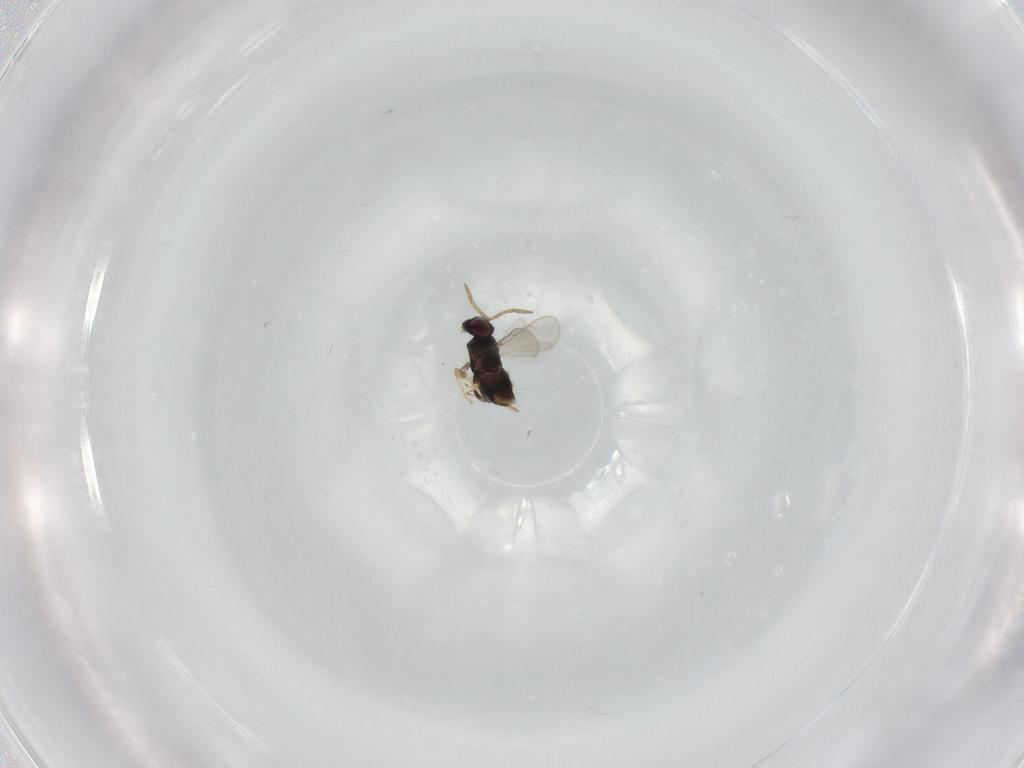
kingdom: Animalia
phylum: Arthropoda
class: Insecta
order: Hymenoptera
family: Aphelinidae
